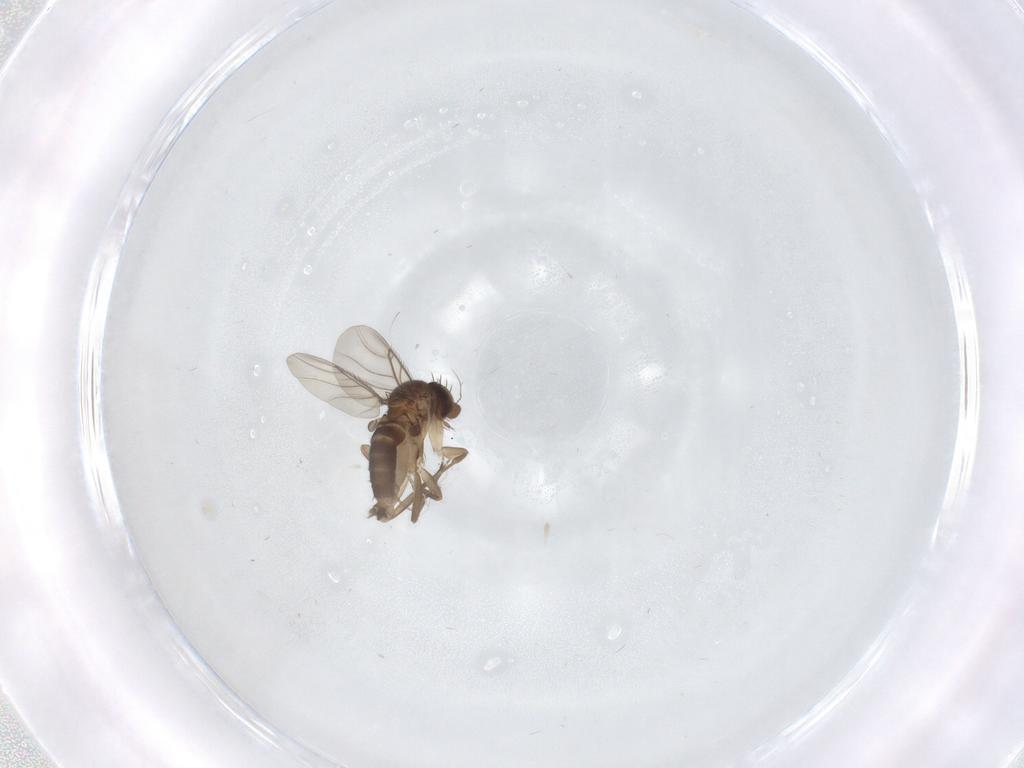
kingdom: Animalia
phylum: Arthropoda
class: Insecta
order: Diptera
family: Phoridae
